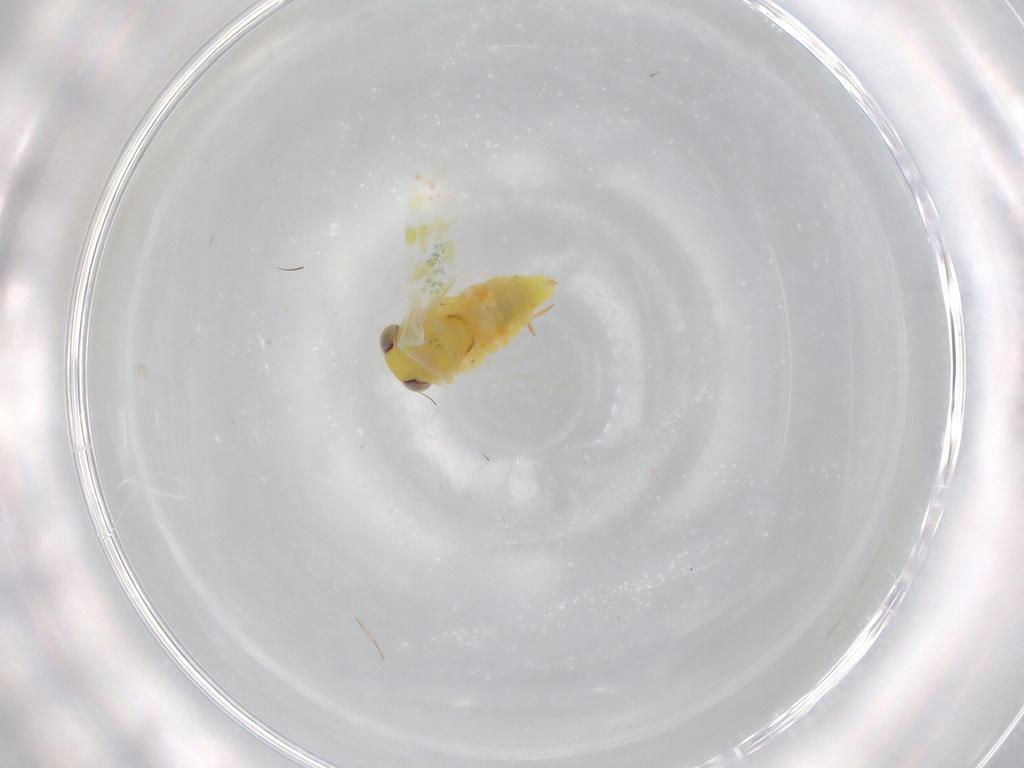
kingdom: Animalia
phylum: Arthropoda
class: Insecta
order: Hemiptera
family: Miridae
